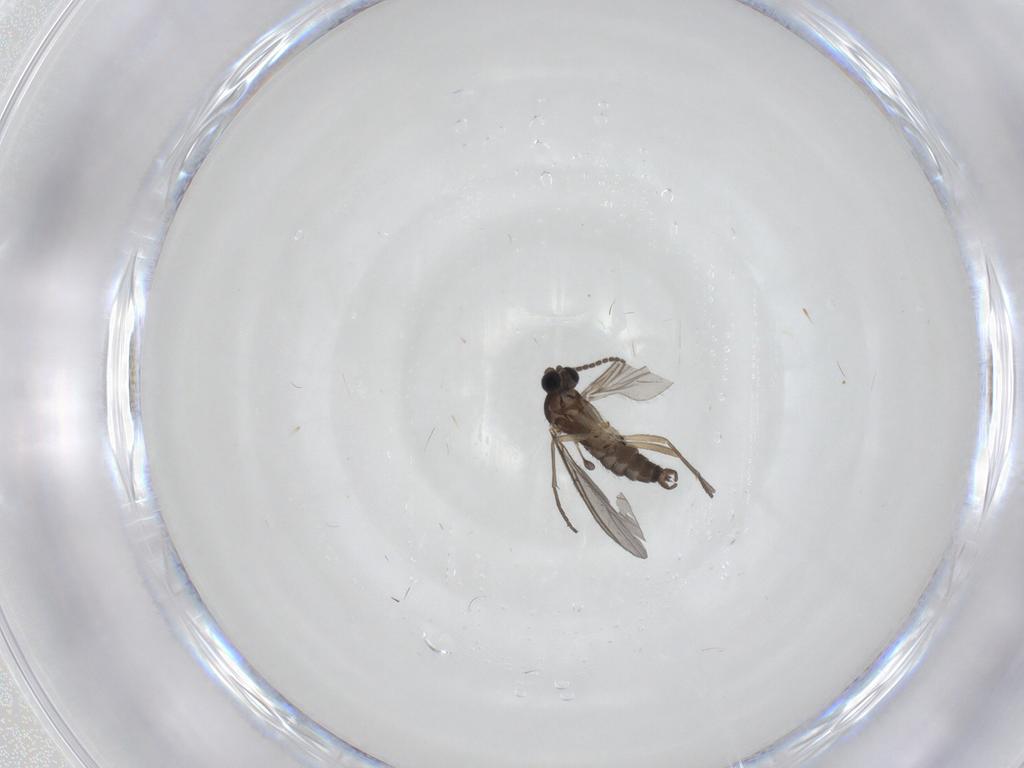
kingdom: Animalia
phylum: Arthropoda
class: Insecta
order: Diptera
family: Sciaridae
